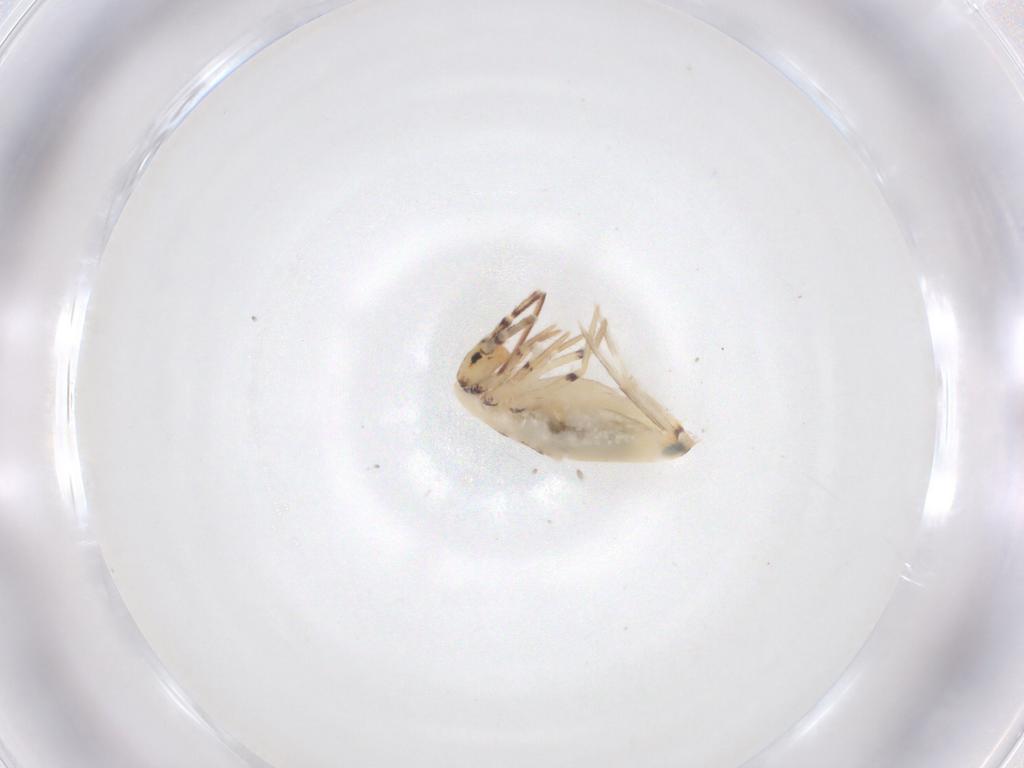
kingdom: Animalia
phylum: Arthropoda
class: Collembola
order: Entomobryomorpha
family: Entomobryidae
